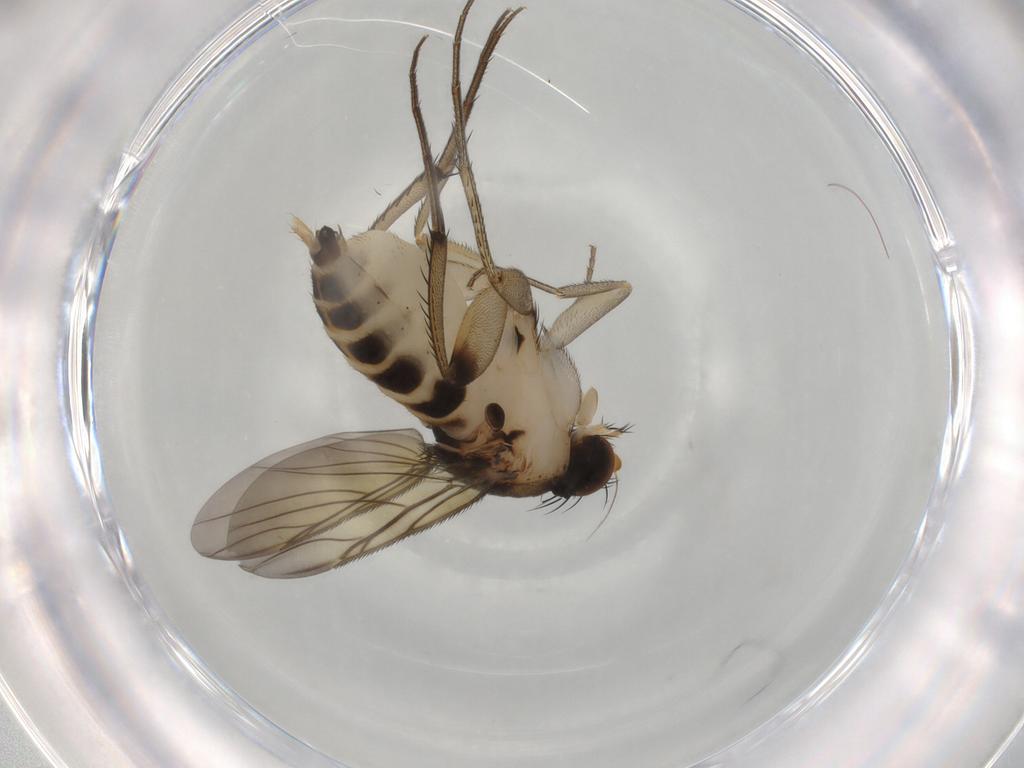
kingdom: Animalia
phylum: Arthropoda
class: Insecta
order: Diptera
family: Phoridae
